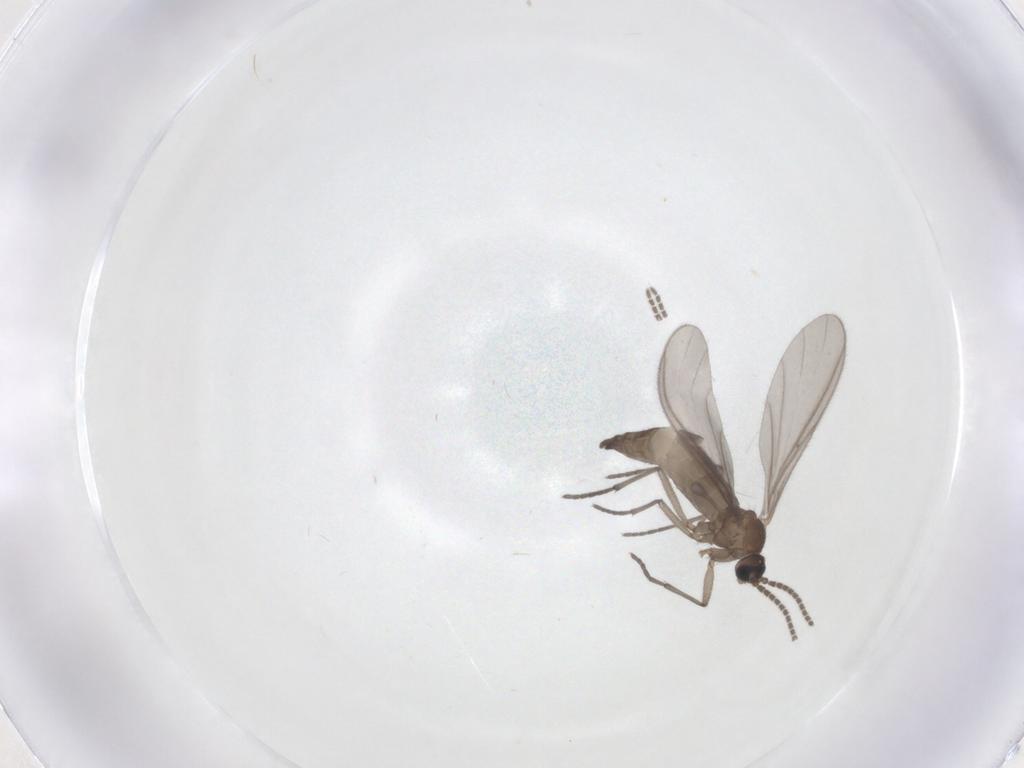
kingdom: Animalia
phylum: Arthropoda
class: Insecta
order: Diptera
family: Sciaridae
